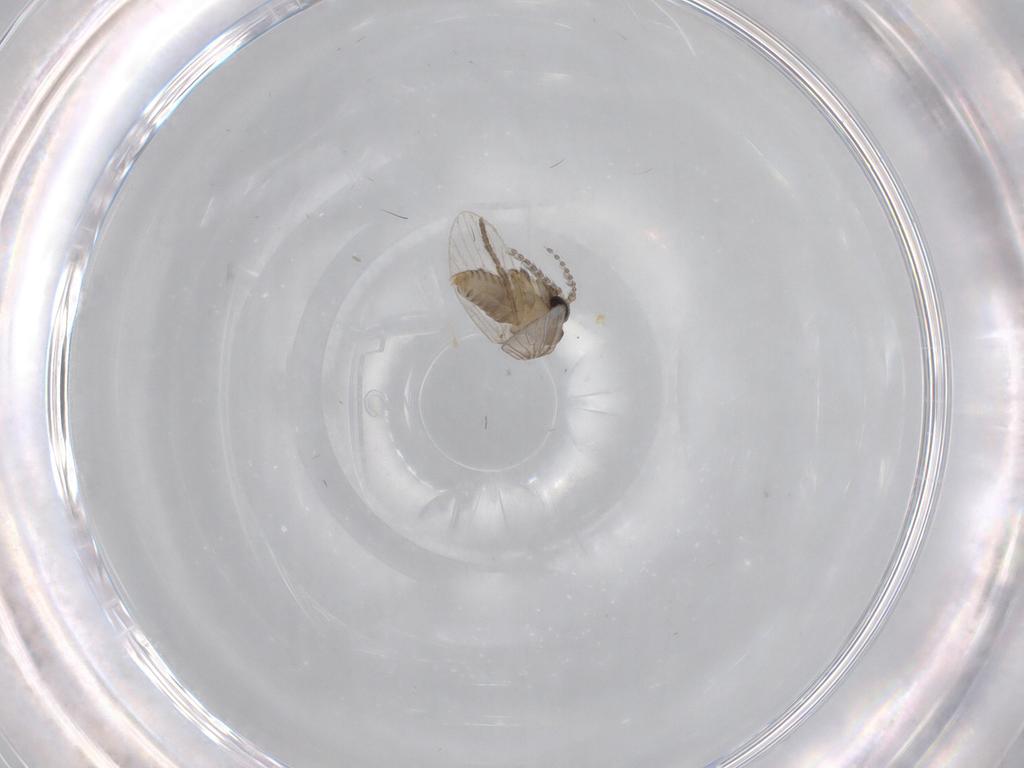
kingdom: Animalia
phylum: Arthropoda
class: Insecta
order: Diptera
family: Psychodidae
